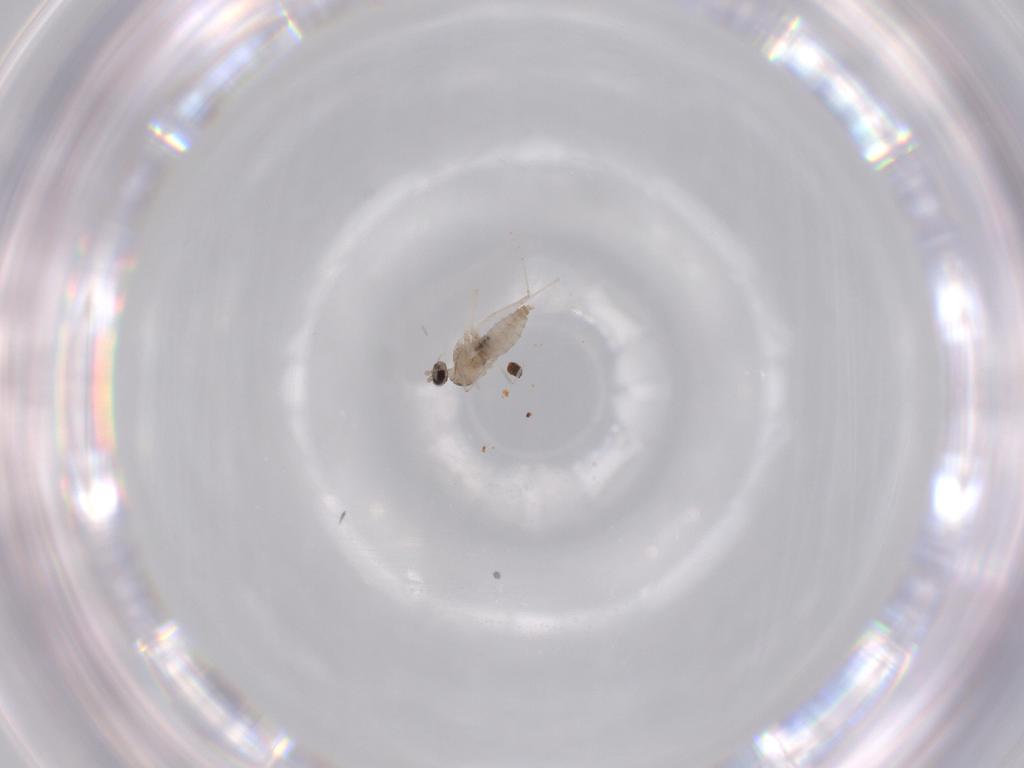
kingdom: Animalia
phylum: Arthropoda
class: Insecta
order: Diptera
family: Cecidomyiidae
